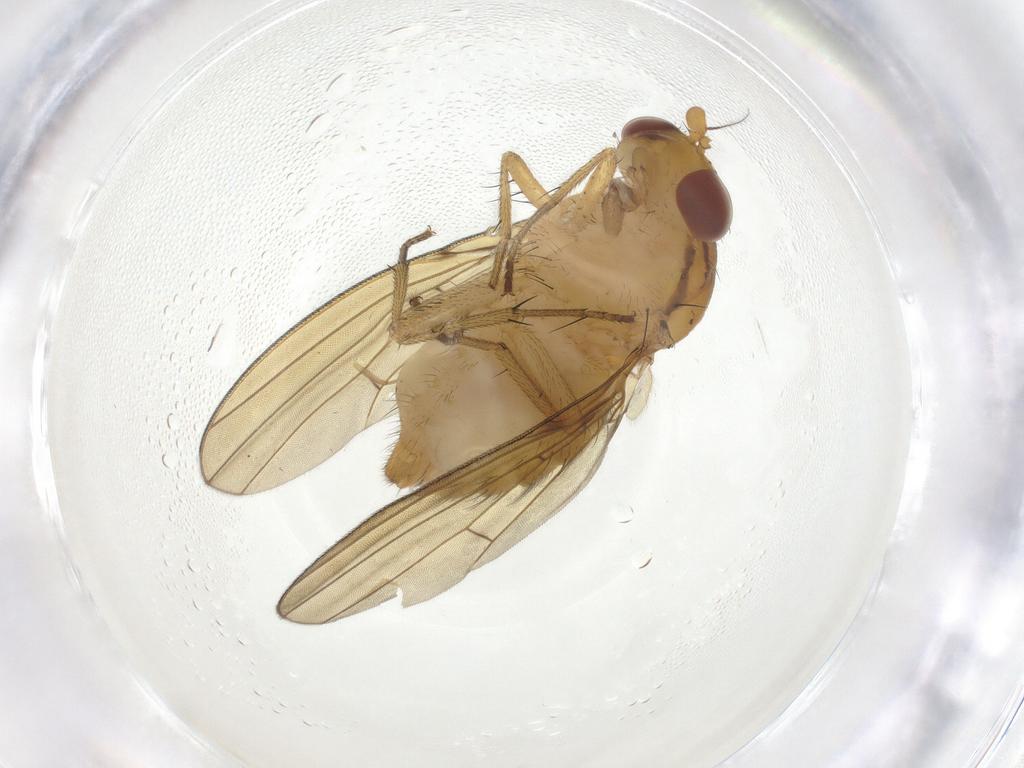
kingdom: Animalia
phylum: Arthropoda
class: Insecta
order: Diptera
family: Lauxaniidae
